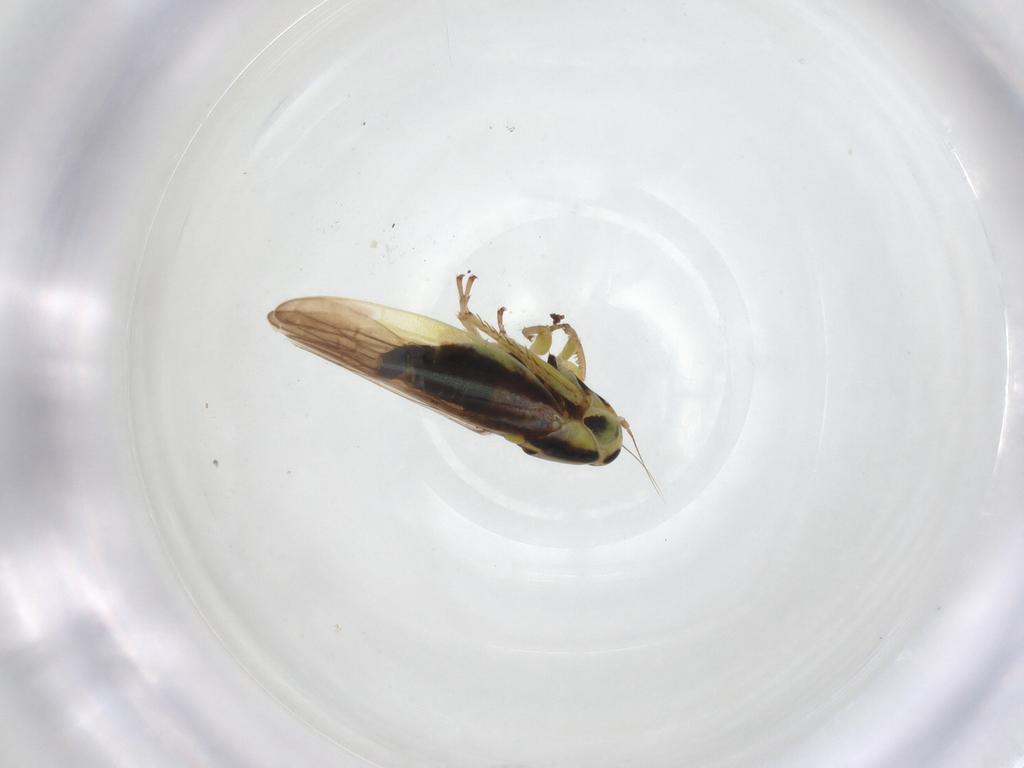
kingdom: Animalia
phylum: Arthropoda
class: Insecta
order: Hemiptera
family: Cicadellidae
